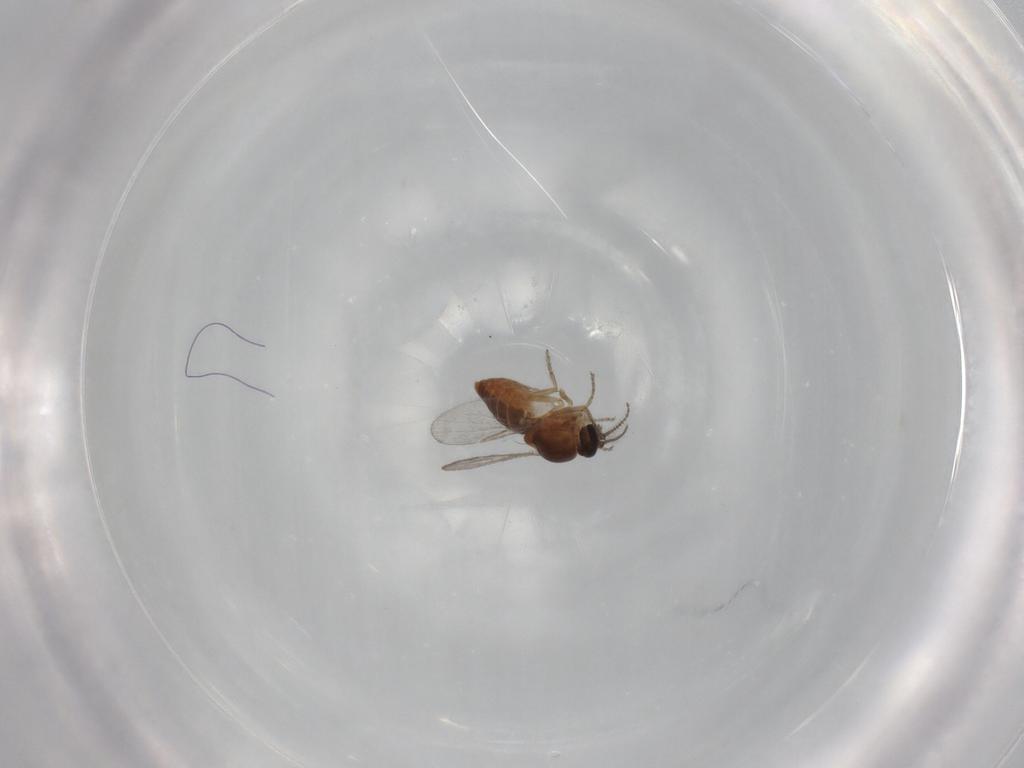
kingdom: Animalia
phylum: Arthropoda
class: Insecta
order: Diptera
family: Ceratopogonidae
